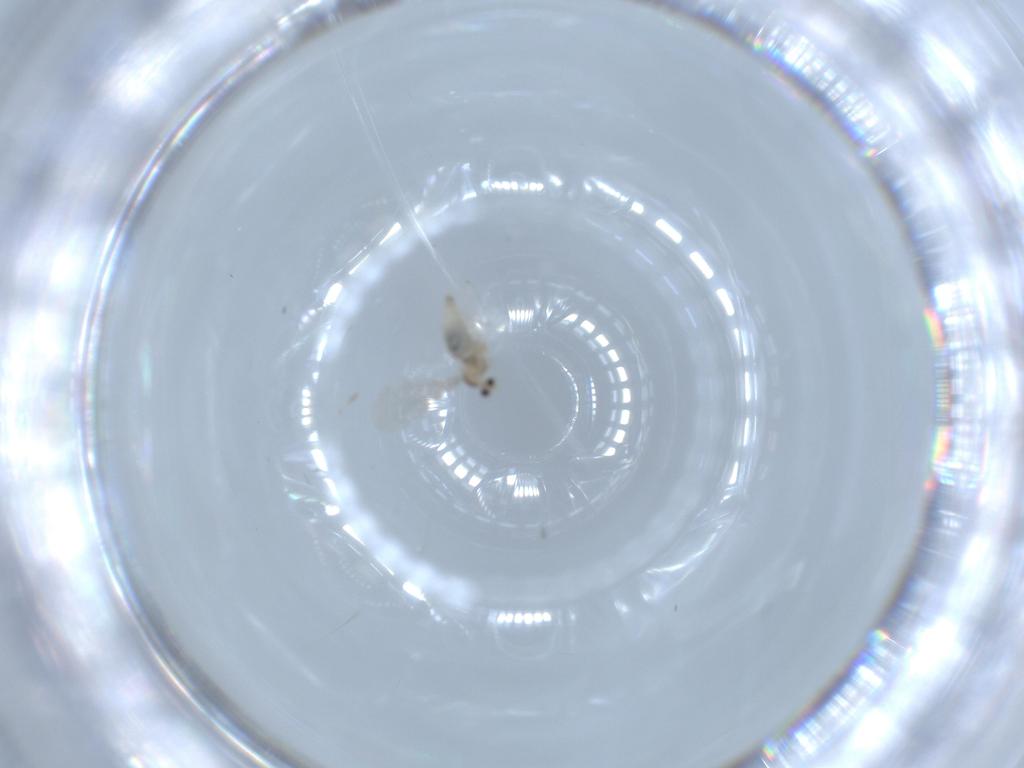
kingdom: Animalia
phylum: Arthropoda
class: Insecta
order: Diptera
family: Cecidomyiidae
